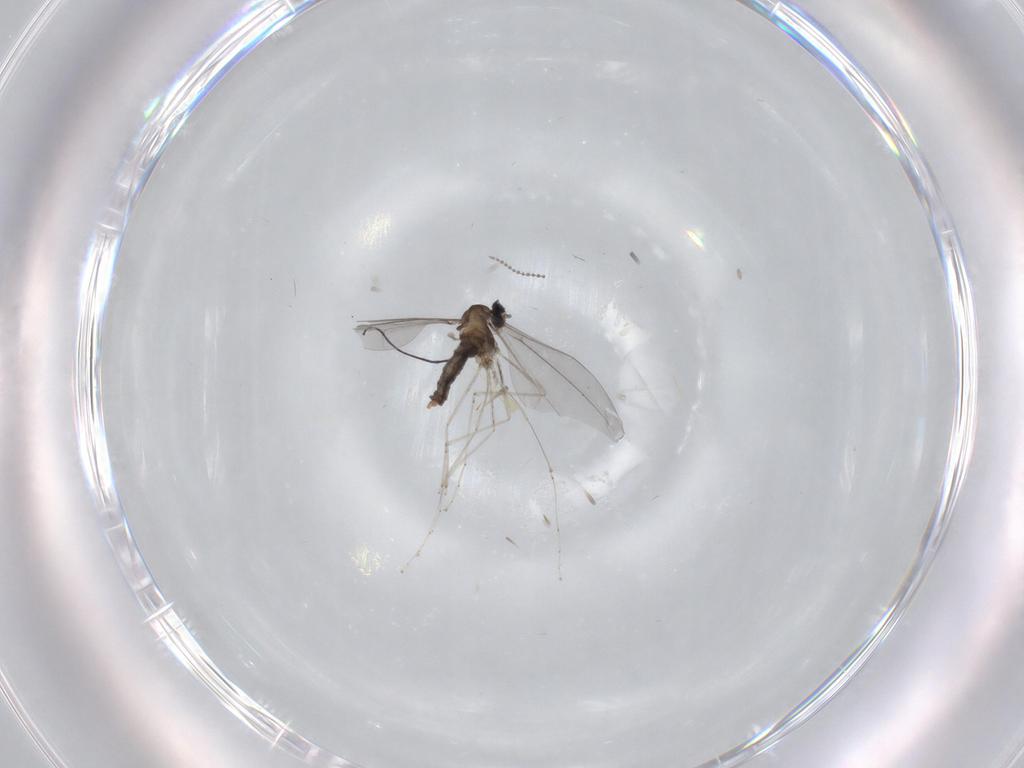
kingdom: Animalia
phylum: Arthropoda
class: Insecta
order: Diptera
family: Cecidomyiidae
